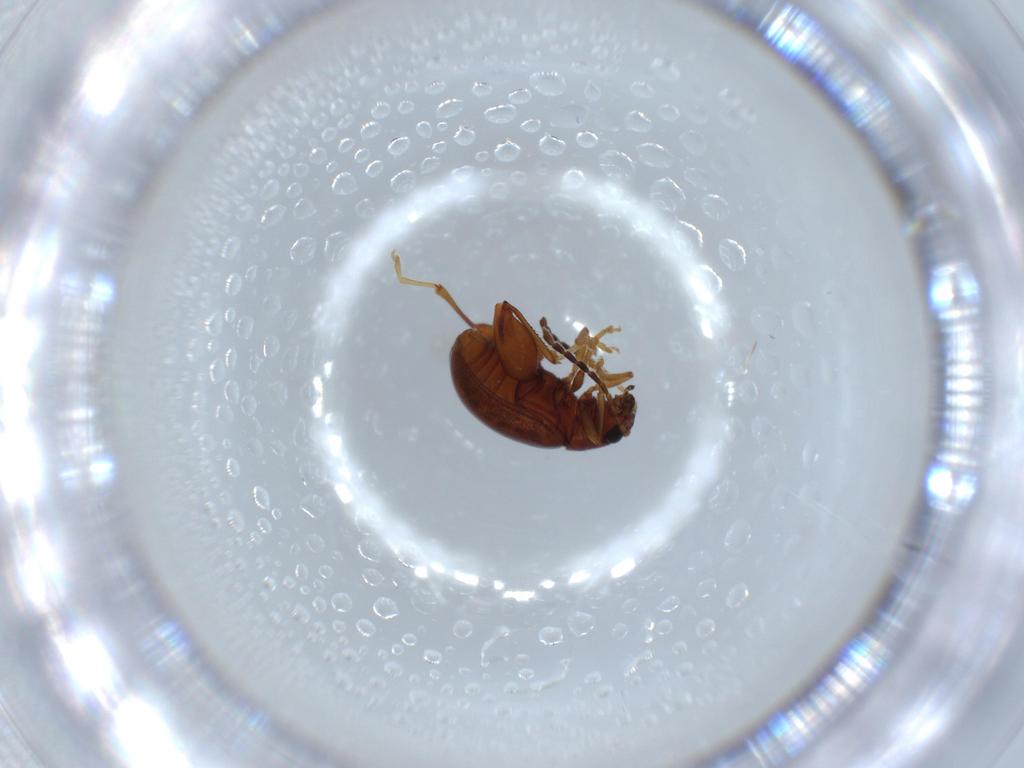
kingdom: Animalia
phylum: Arthropoda
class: Insecta
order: Coleoptera
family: Chrysomelidae
